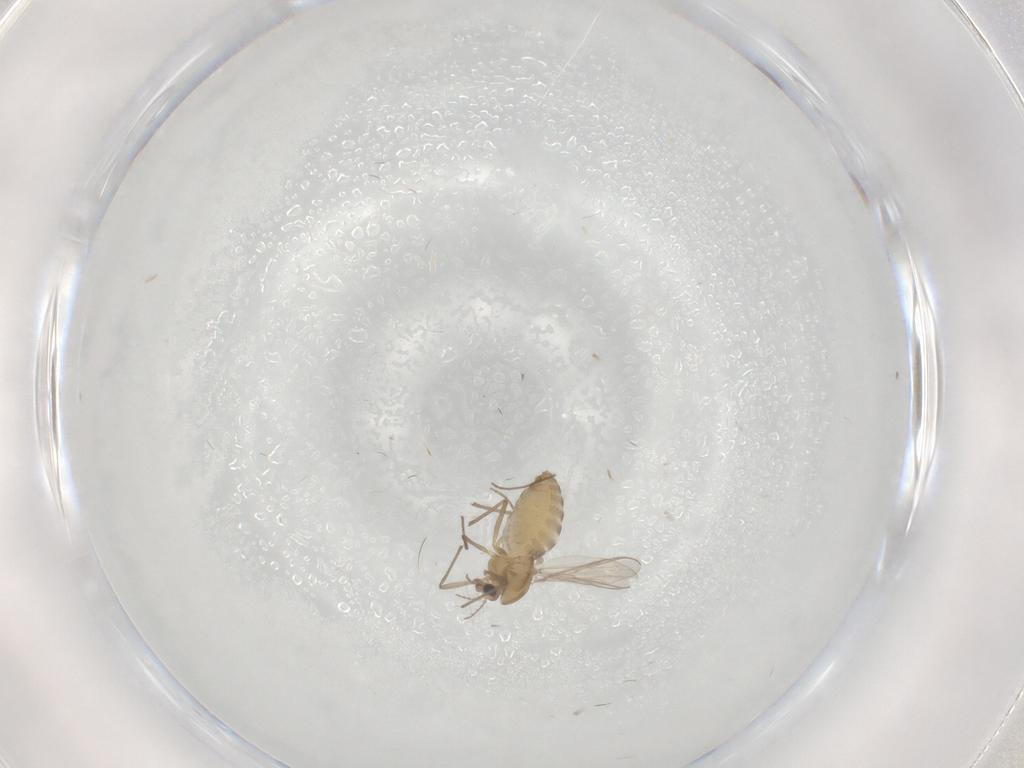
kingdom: Animalia
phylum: Arthropoda
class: Insecta
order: Diptera
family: Chironomidae
